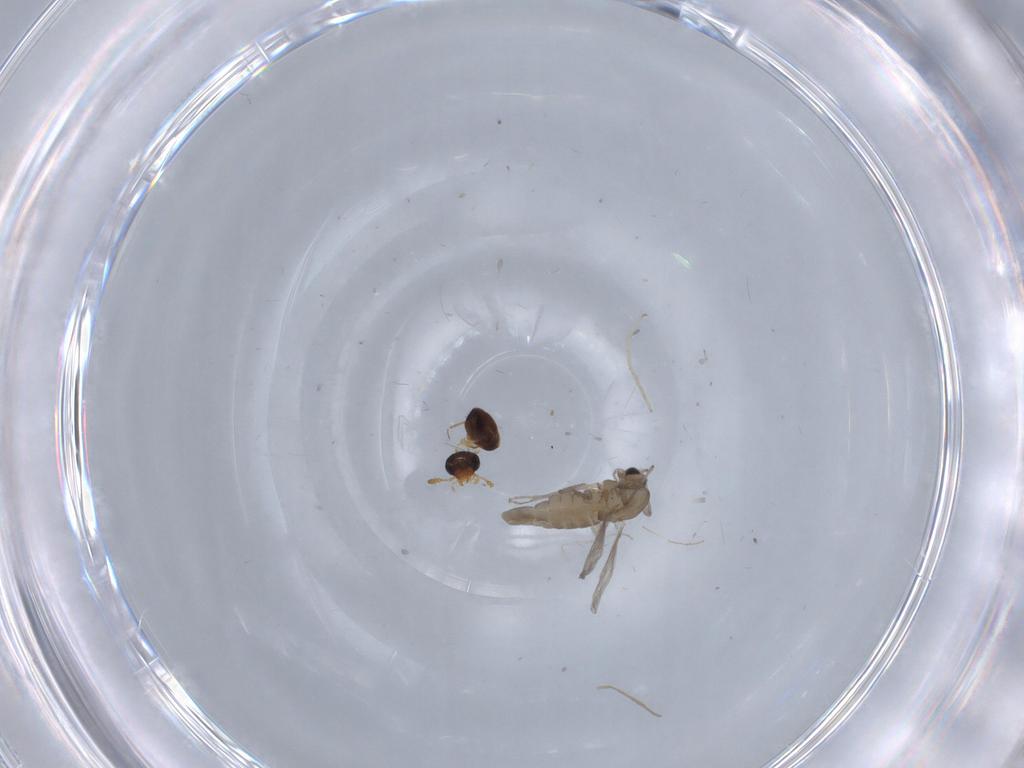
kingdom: Animalia
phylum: Arthropoda
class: Insecta
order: Diptera
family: Chironomidae
